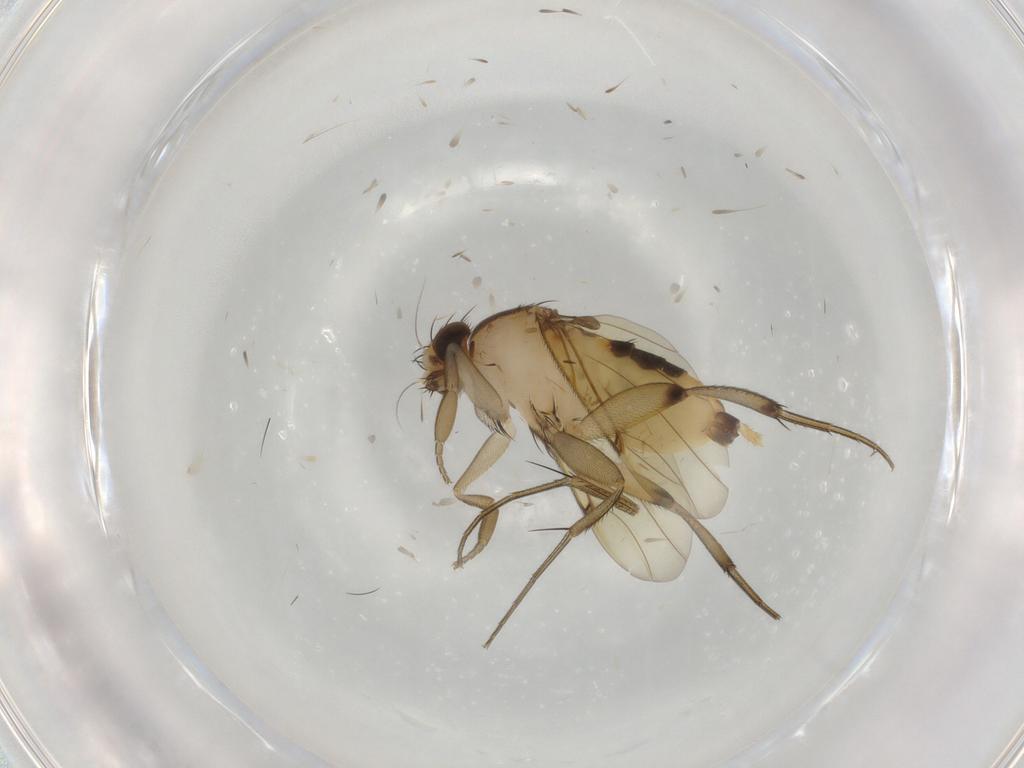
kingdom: Animalia
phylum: Arthropoda
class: Insecta
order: Diptera
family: Phoridae
